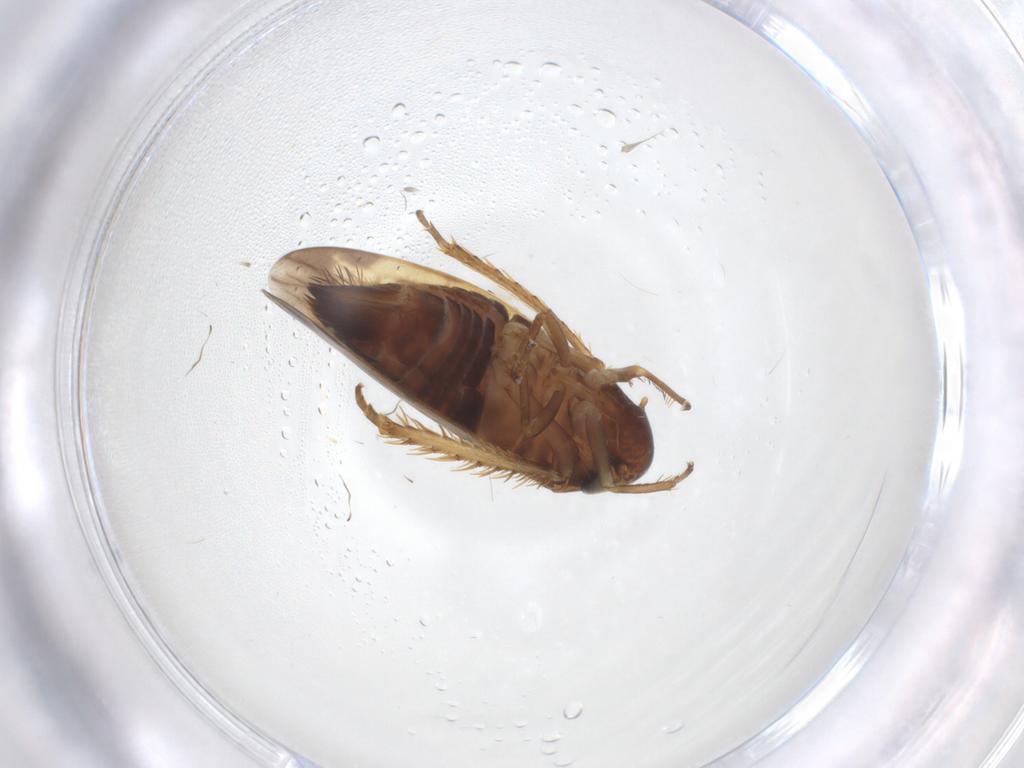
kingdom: Animalia
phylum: Arthropoda
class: Insecta
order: Hemiptera
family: Cicadellidae
